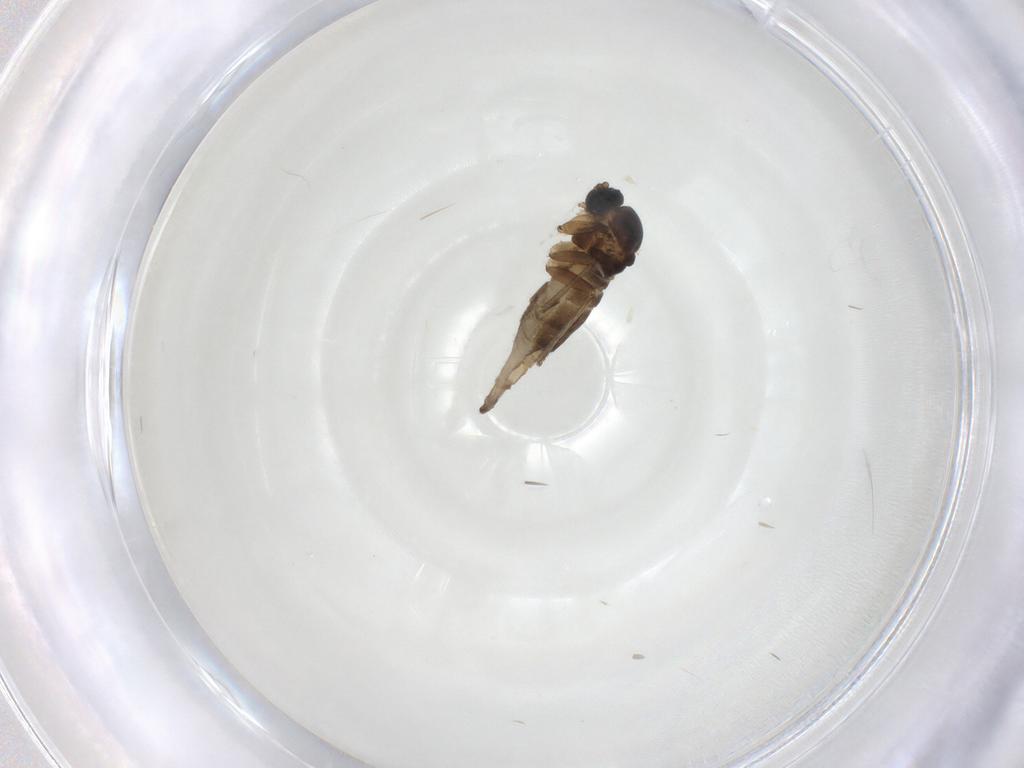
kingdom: Animalia
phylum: Arthropoda
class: Insecta
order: Diptera
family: Sciaridae
